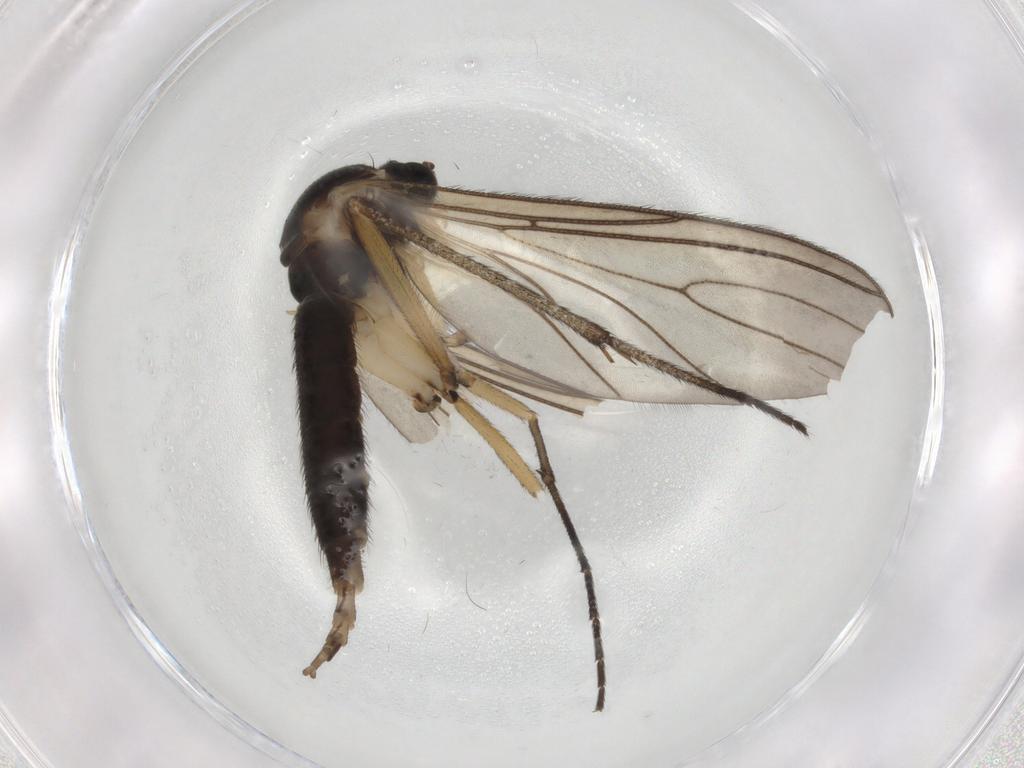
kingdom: Animalia
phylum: Arthropoda
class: Insecta
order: Diptera
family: Sciaridae
